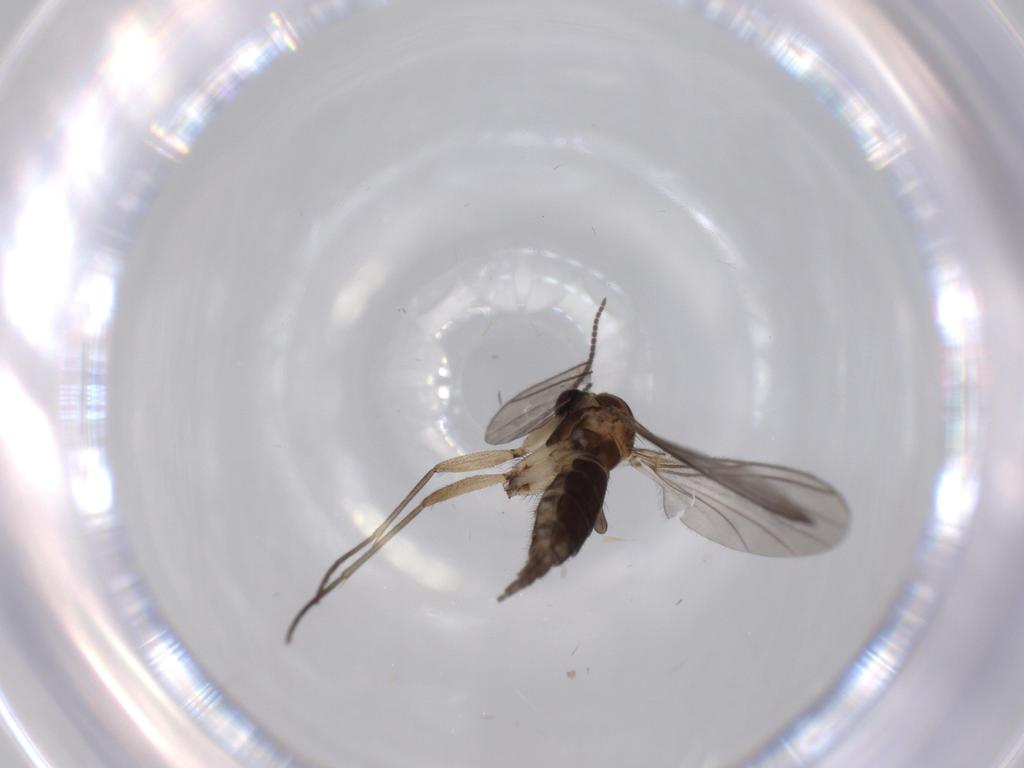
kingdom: Animalia
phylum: Arthropoda
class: Insecta
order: Diptera
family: Sciaridae
